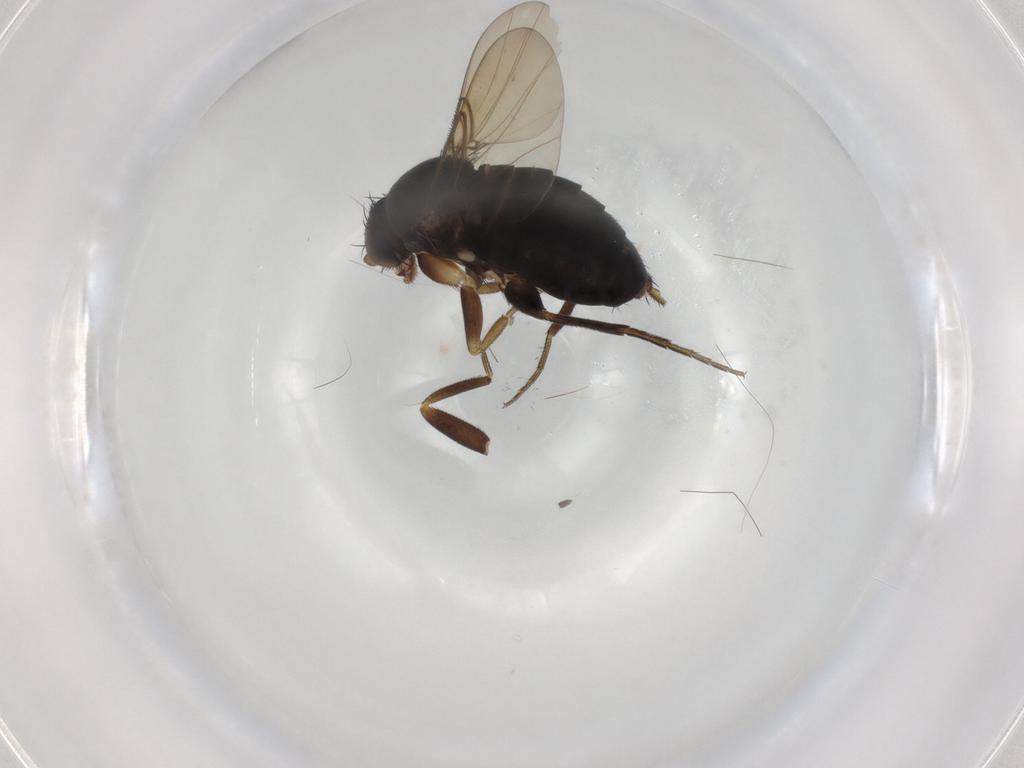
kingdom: Animalia
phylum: Arthropoda
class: Insecta
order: Diptera
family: Phoridae
